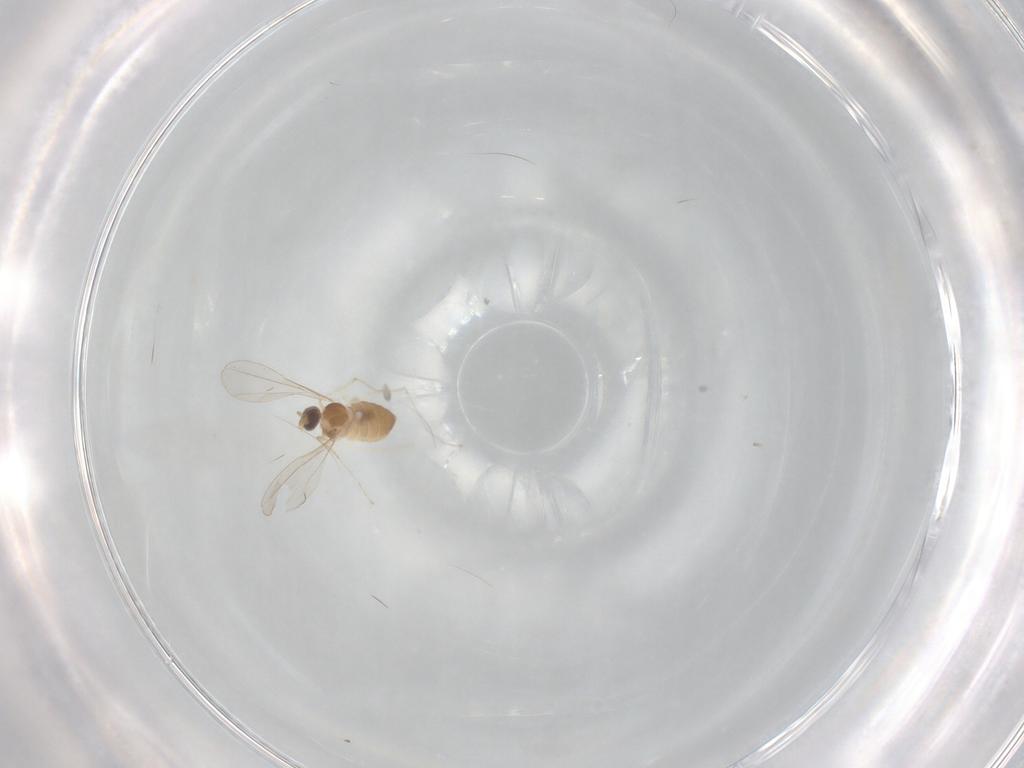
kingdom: Animalia
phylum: Arthropoda
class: Insecta
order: Diptera
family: Cecidomyiidae
